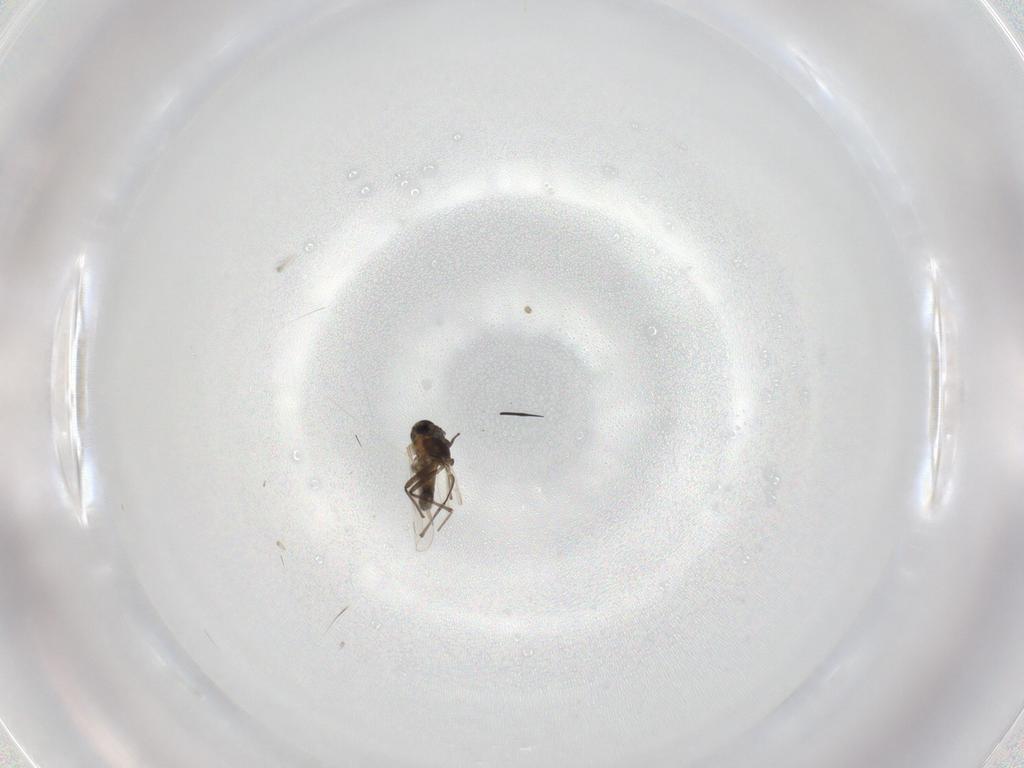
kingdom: Animalia
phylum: Arthropoda
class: Insecta
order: Diptera
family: Chironomidae
